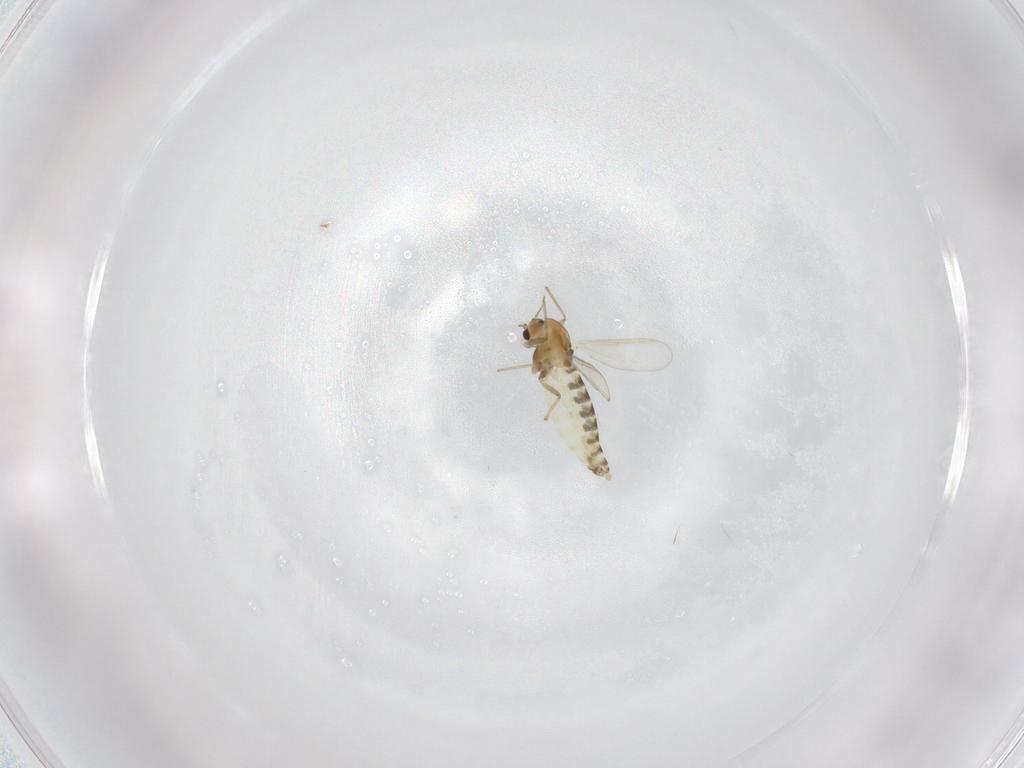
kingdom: Animalia
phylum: Arthropoda
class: Insecta
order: Diptera
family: Chironomidae
